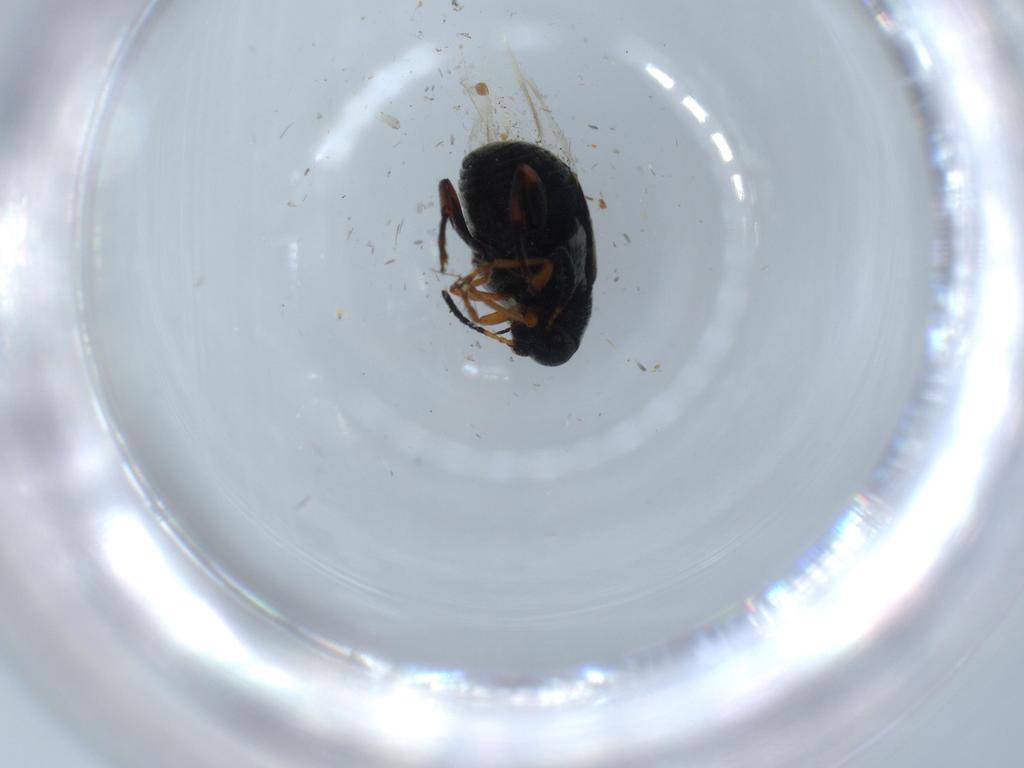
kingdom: Animalia
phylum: Arthropoda
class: Insecta
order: Coleoptera
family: Chrysomelidae
